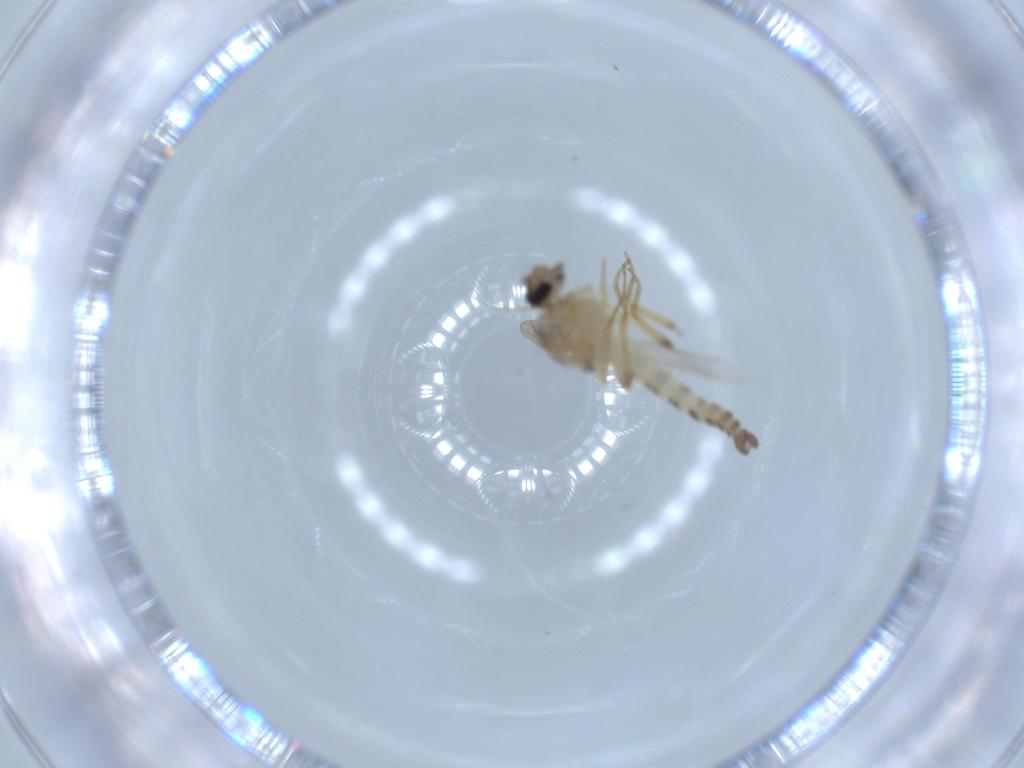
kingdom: Animalia
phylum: Arthropoda
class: Insecta
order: Diptera
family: Ceratopogonidae
